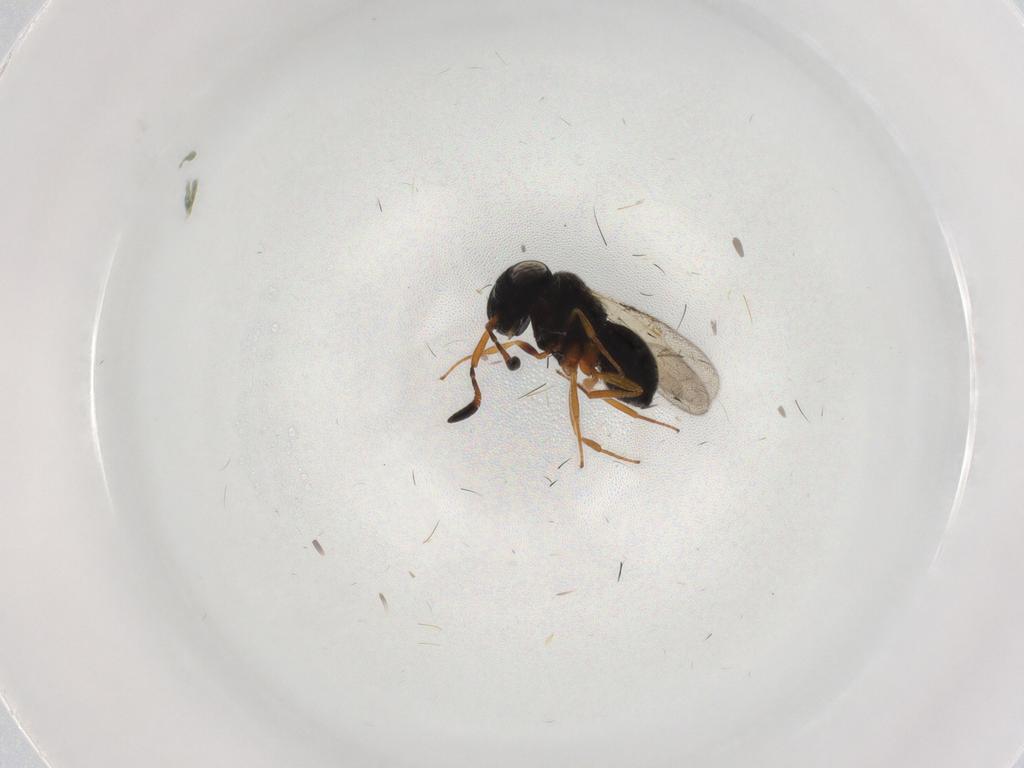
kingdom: Animalia
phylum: Arthropoda
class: Insecta
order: Hymenoptera
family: Scelionidae
